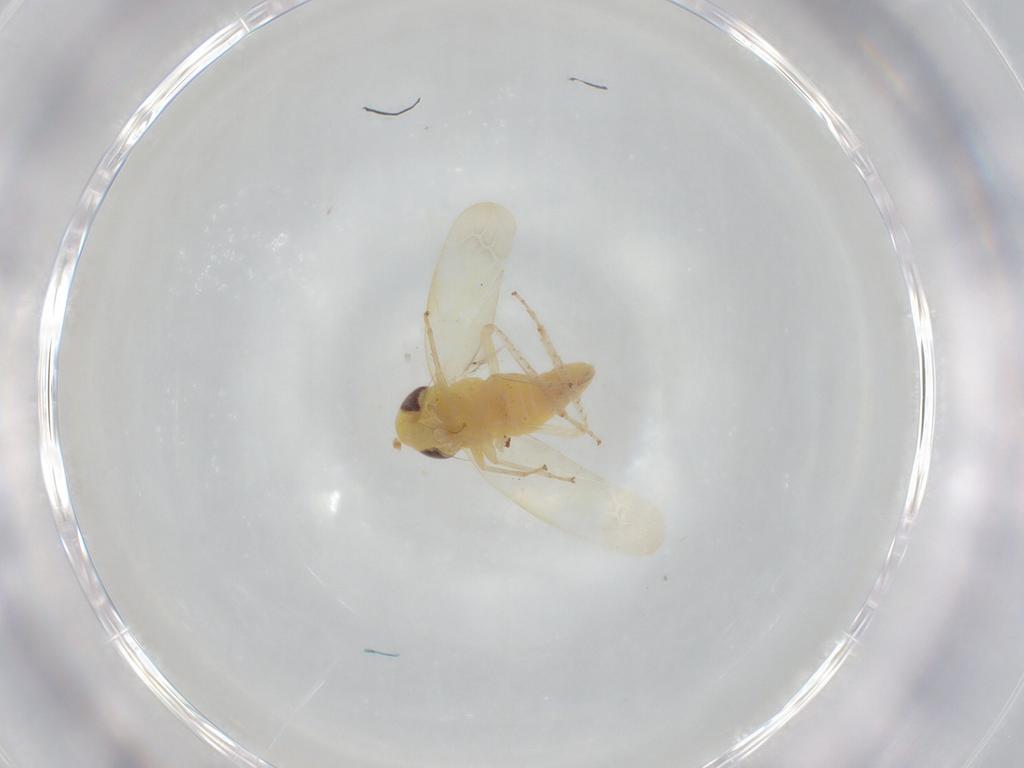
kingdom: Animalia
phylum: Arthropoda
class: Insecta
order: Hemiptera
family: Cicadellidae
